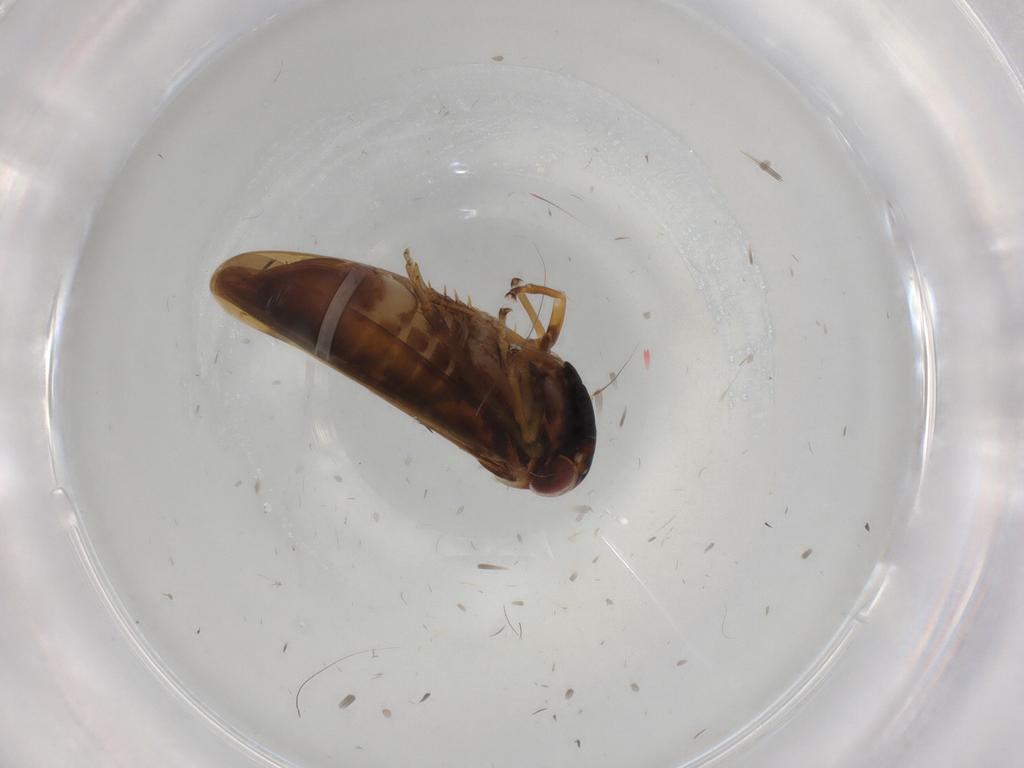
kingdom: Animalia
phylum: Arthropoda
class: Insecta
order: Hemiptera
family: Cicadellidae
